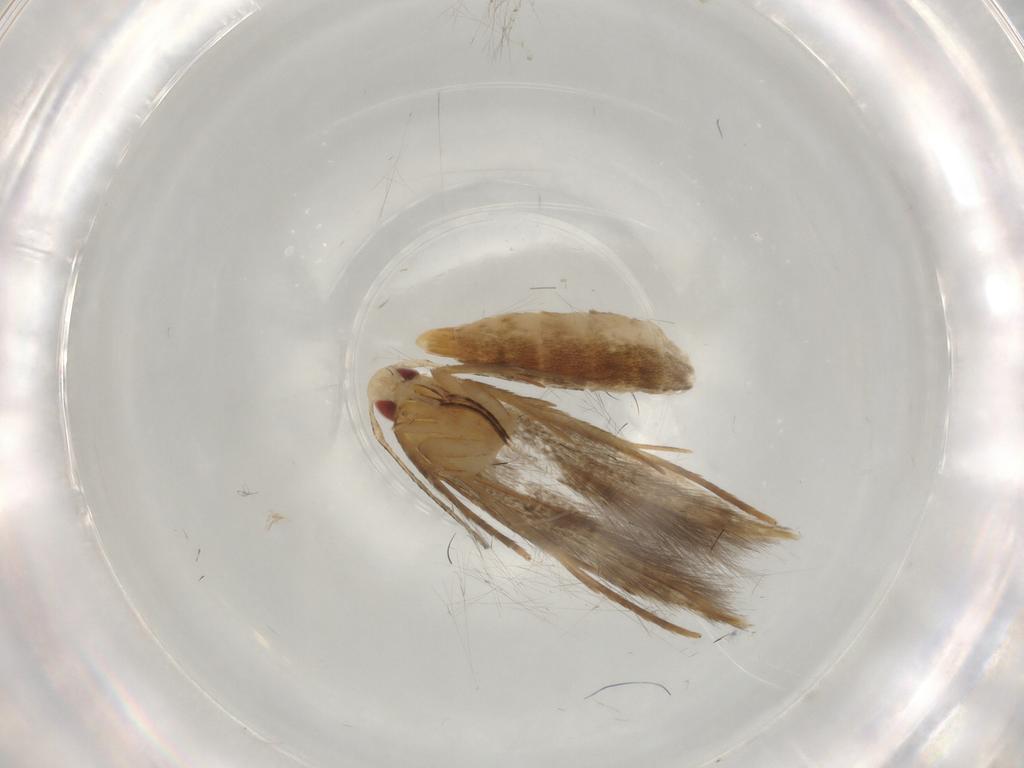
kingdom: Animalia
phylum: Arthropoda
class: Insecta
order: Lepidoptera
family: Gelechiidae
